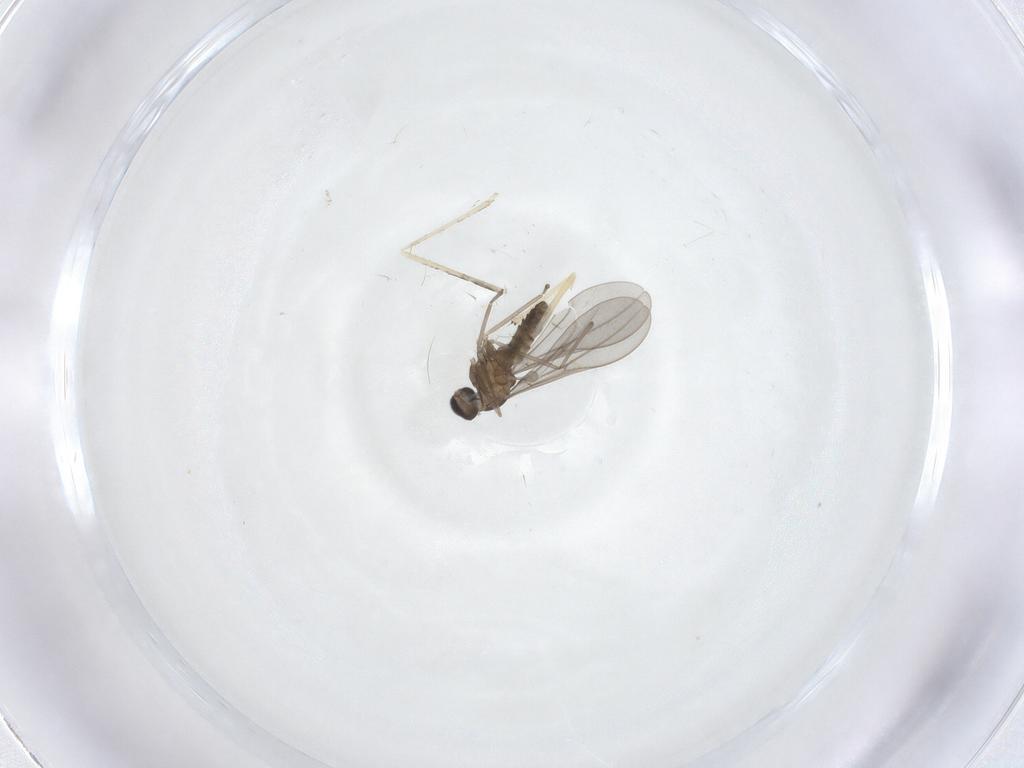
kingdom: Animalia
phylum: Arthropoda
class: Insecta
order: Diptera
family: Cecidomyiidae
